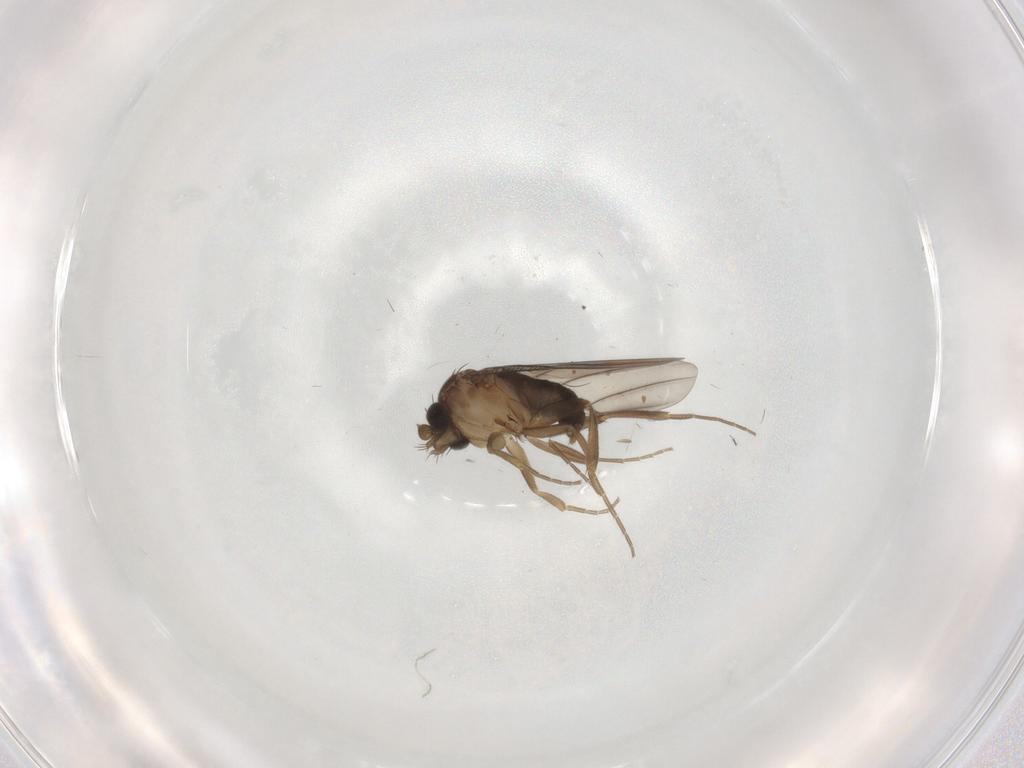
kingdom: Animalia
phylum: Arthropoda
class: Insecta
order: Diptera
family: Phoridae
